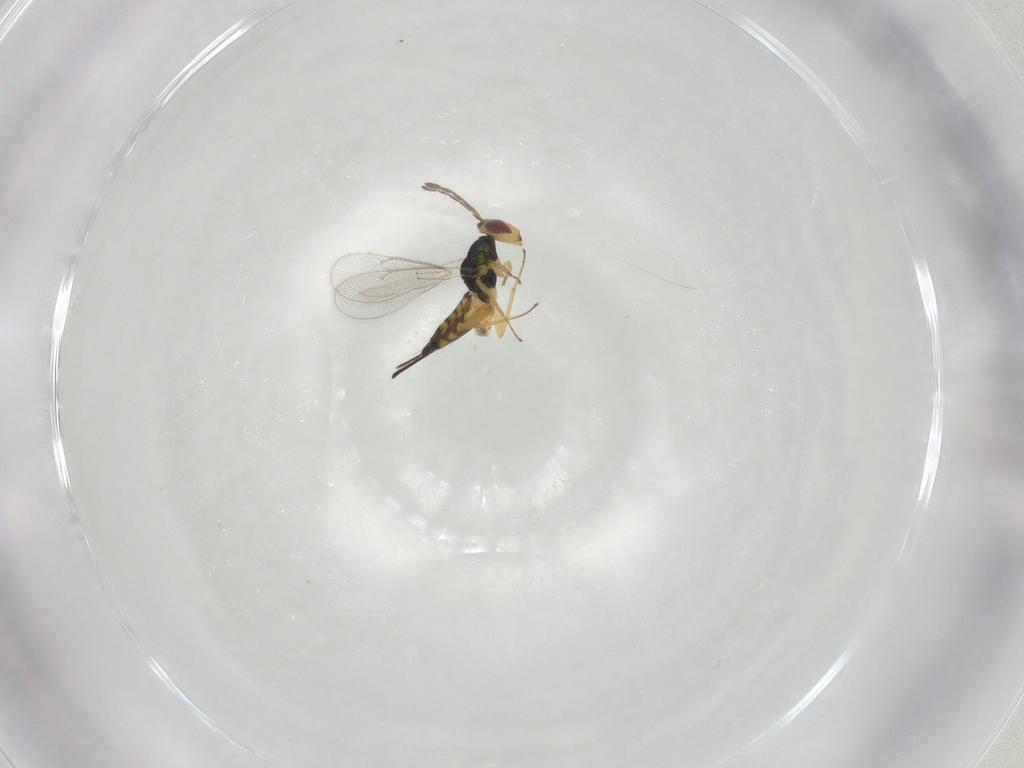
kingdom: Animalia
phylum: Arthropoda
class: Insecta
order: Hymenoptera
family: Eulophidae
